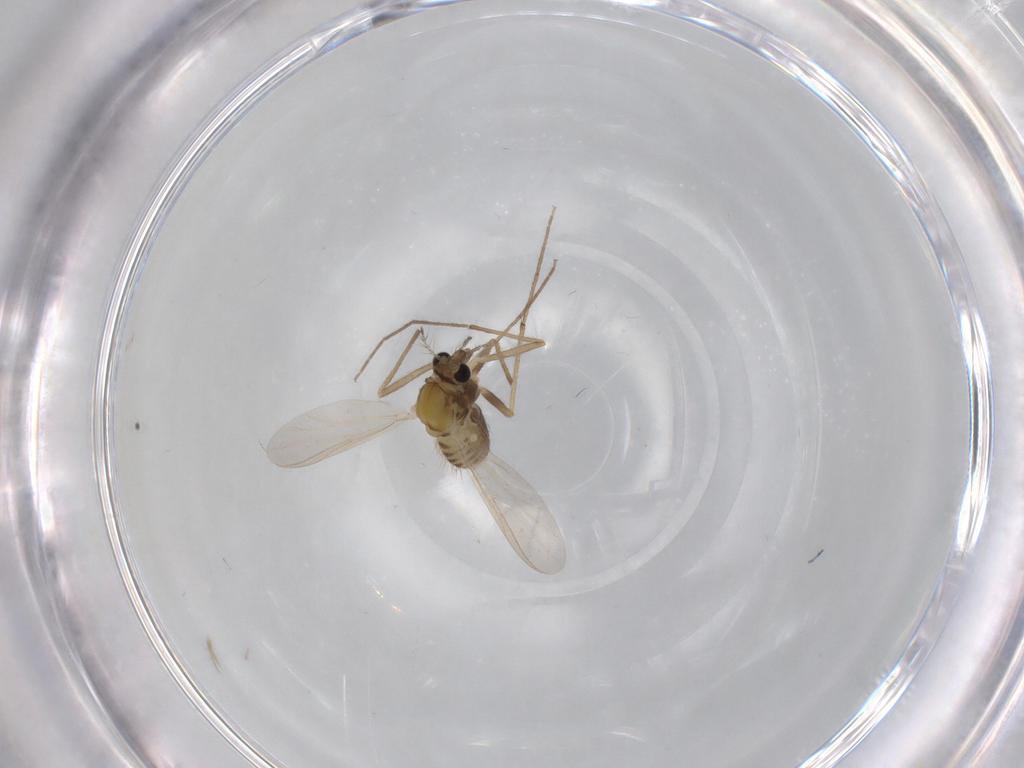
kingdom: Animalia
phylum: Arthropoda
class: Insecta
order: Diptera
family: Chironomidae
